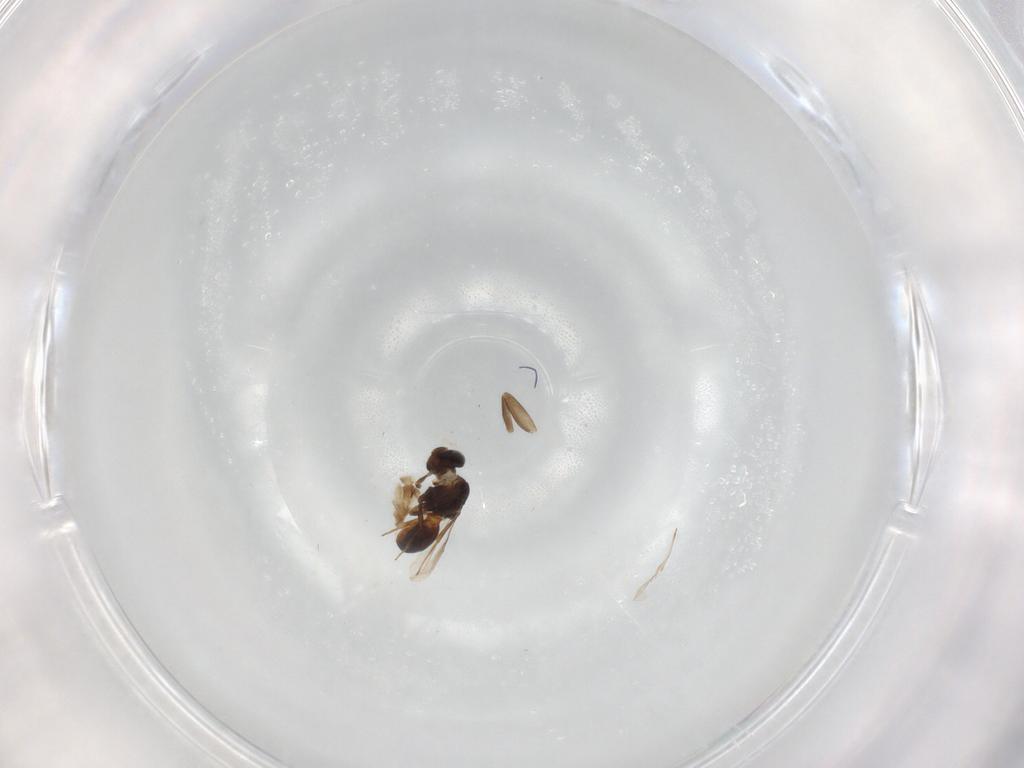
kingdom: Animalia
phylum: Arthropoda
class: Insecta
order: Hymenoptera
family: Scelionidae
